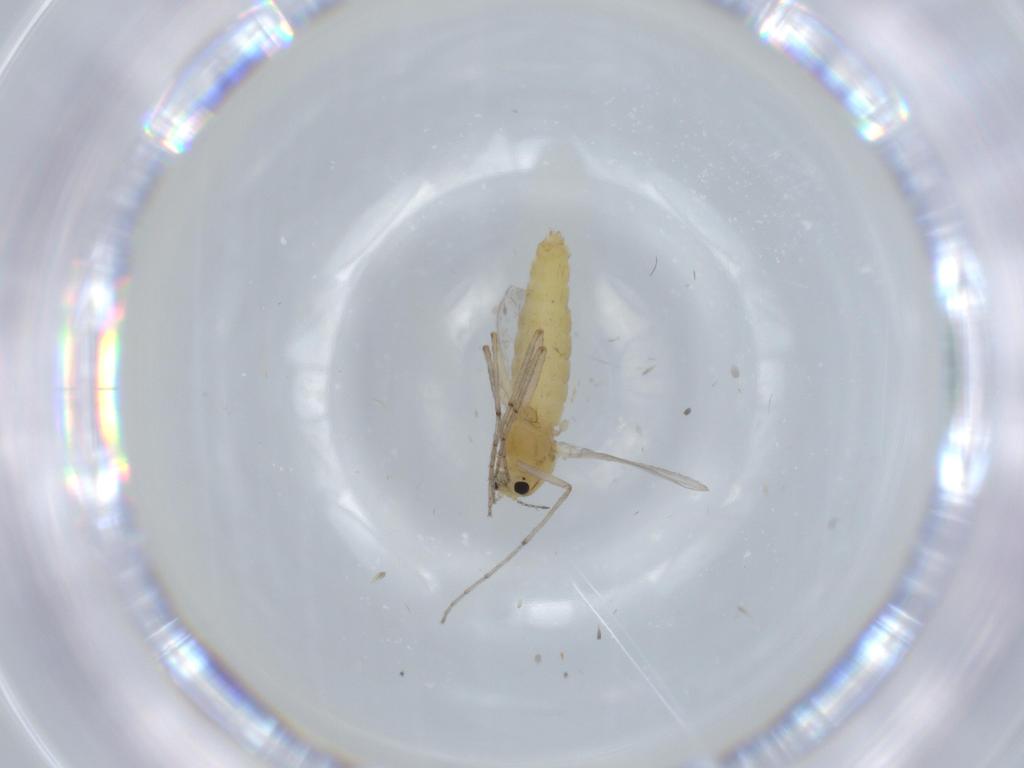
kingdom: Animalia
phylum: Arthropoda
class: Insecta
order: Diptera
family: Chironomidae
